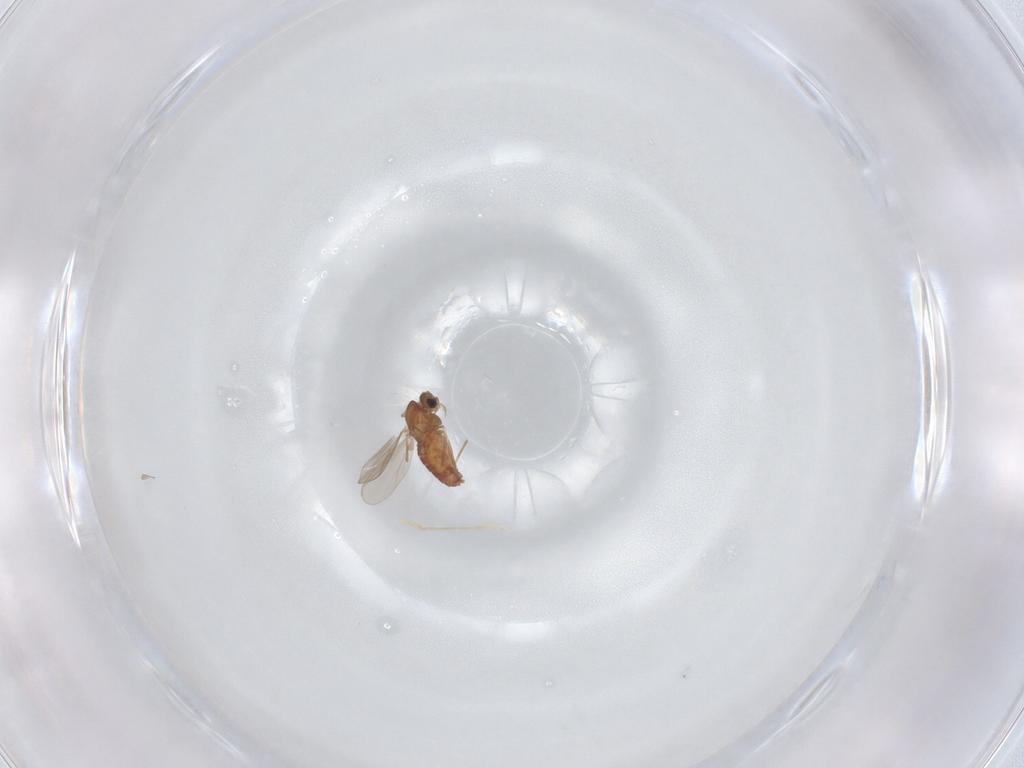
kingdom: Animalia
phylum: Arthropoda
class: Insecta
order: Diptera
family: Chironomidae
